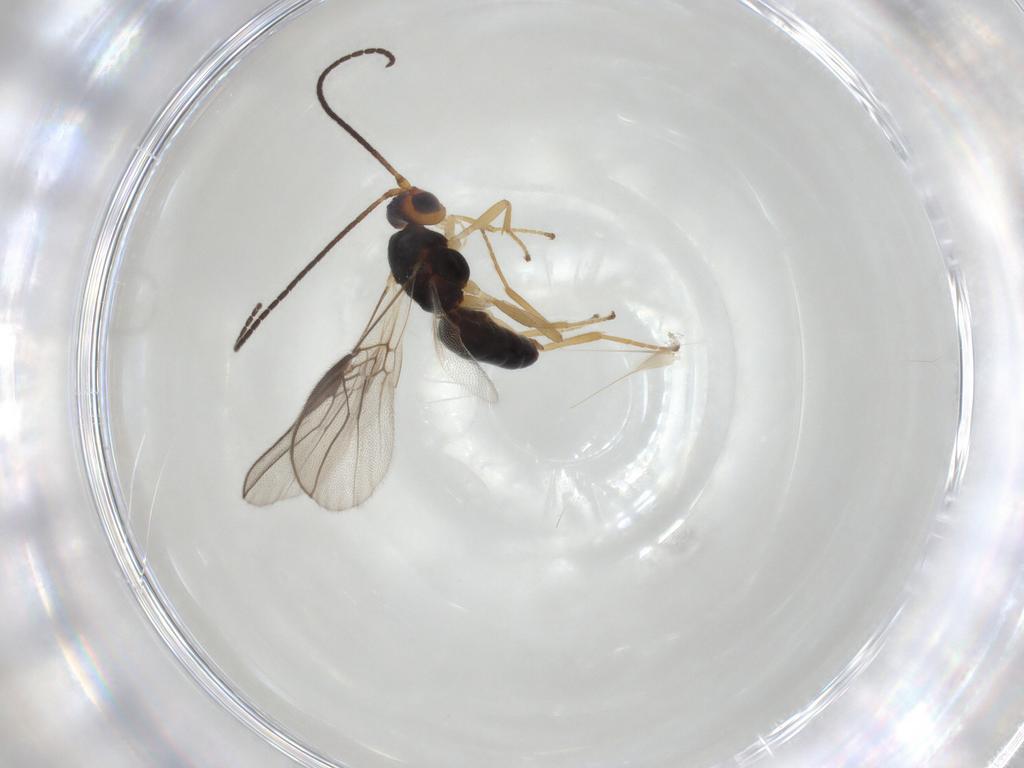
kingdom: Animalia
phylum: Arthropoda
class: Insecta
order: Hymenoptera
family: Braconidae
